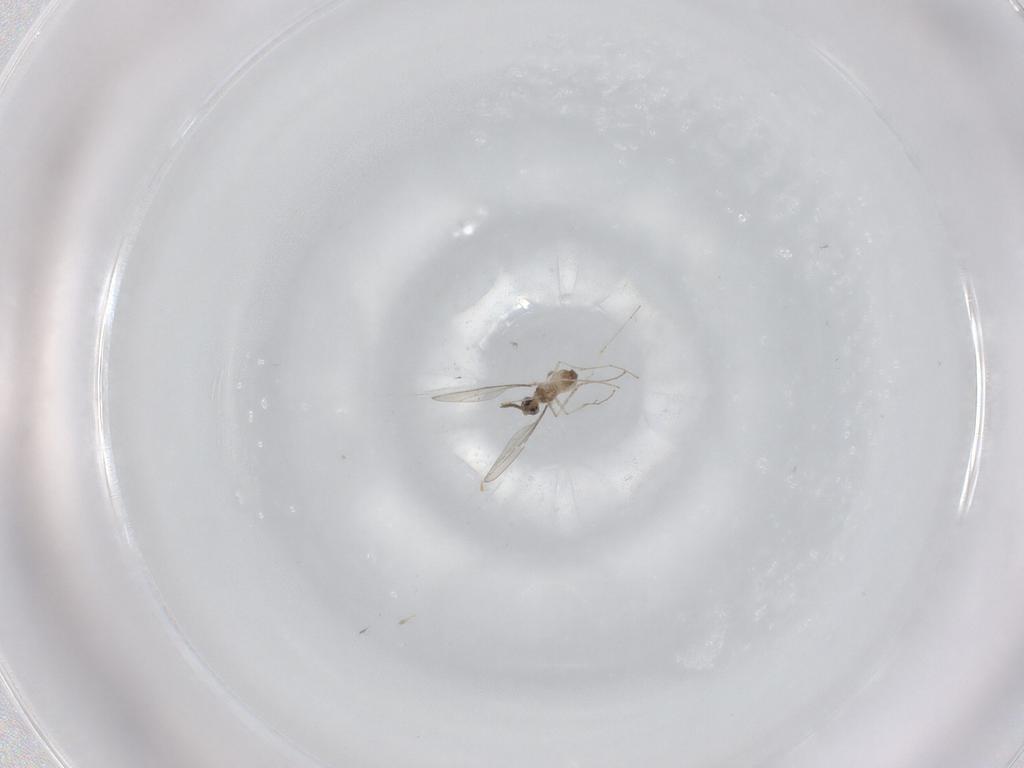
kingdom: Animalia
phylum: Arthropoda
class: Insecta
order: Diptera
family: Cecidomyiidae
